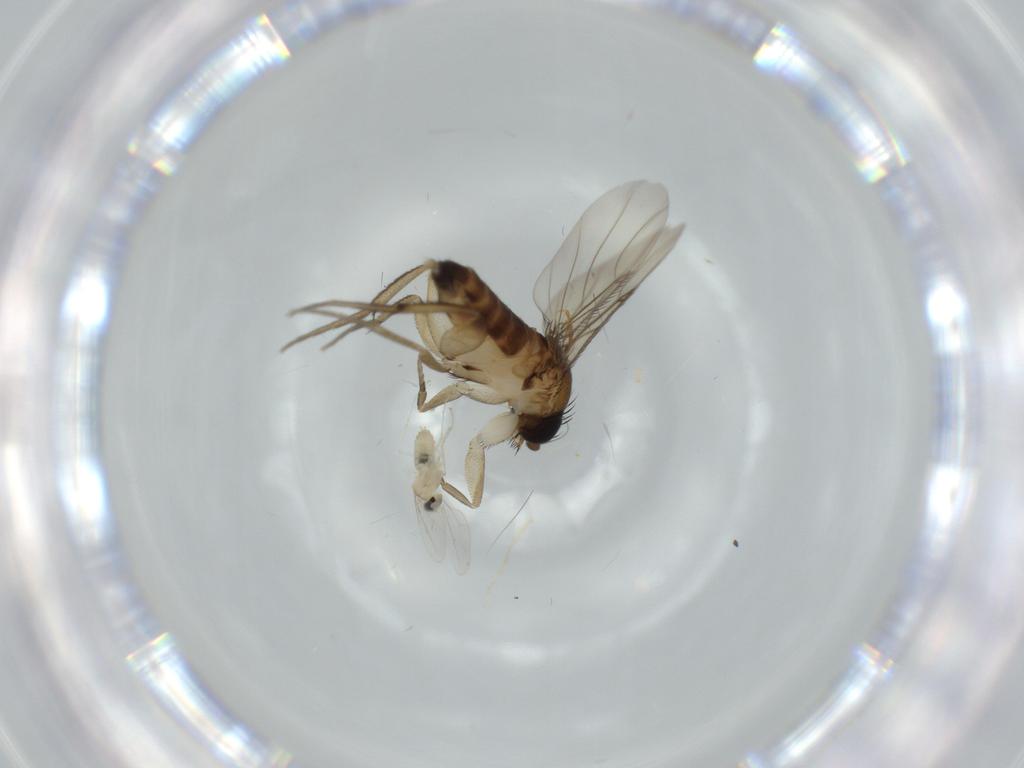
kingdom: Animalia
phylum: Arthropoda
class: Insecta
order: Diptera
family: Phoridae
